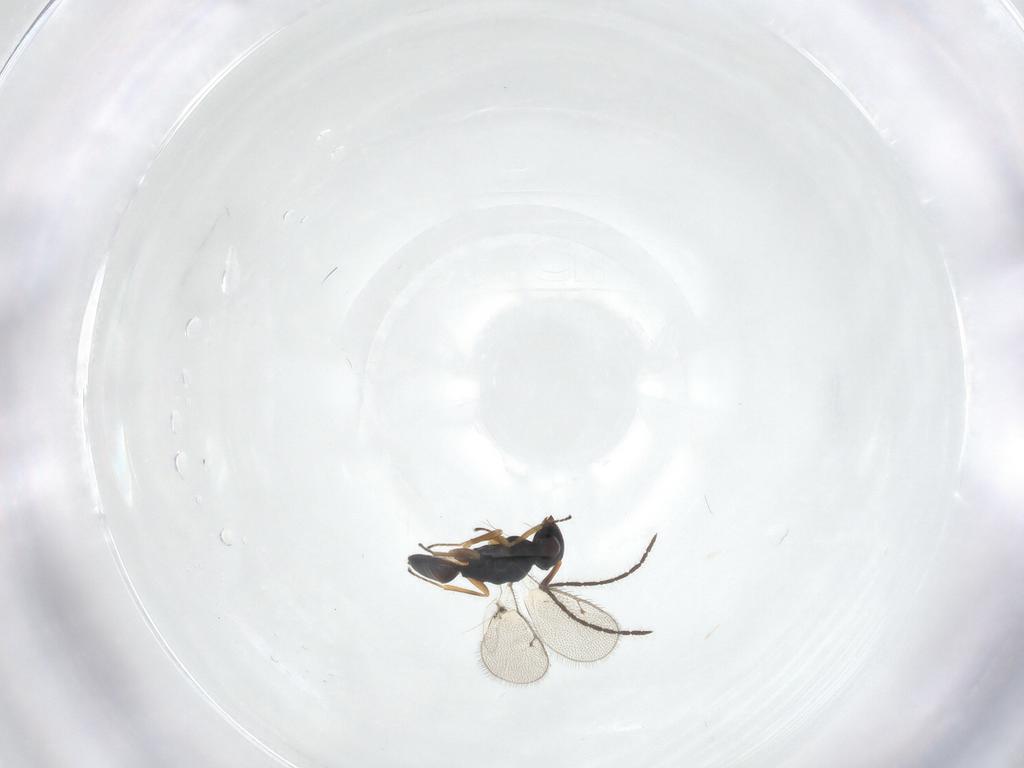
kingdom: Animalia
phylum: Arthropoda
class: Insecta
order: Hymenoptera
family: Pteromalidae
